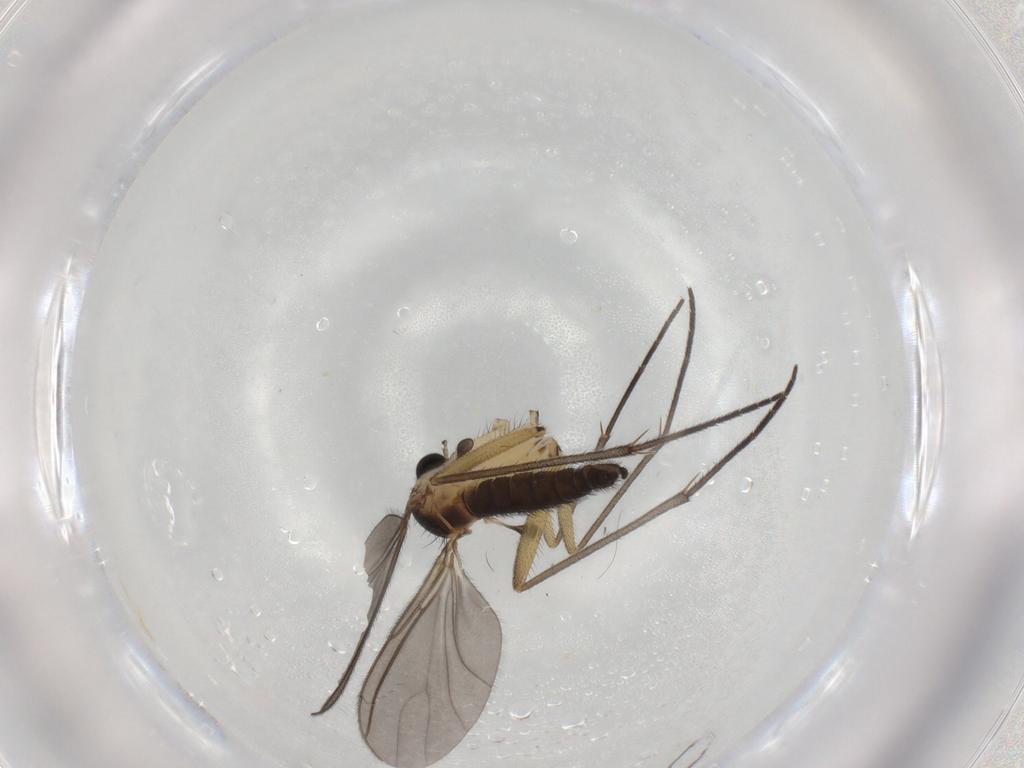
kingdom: Animalia
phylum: Arthropoda
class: Insecta
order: Diptera
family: Sciaridae
